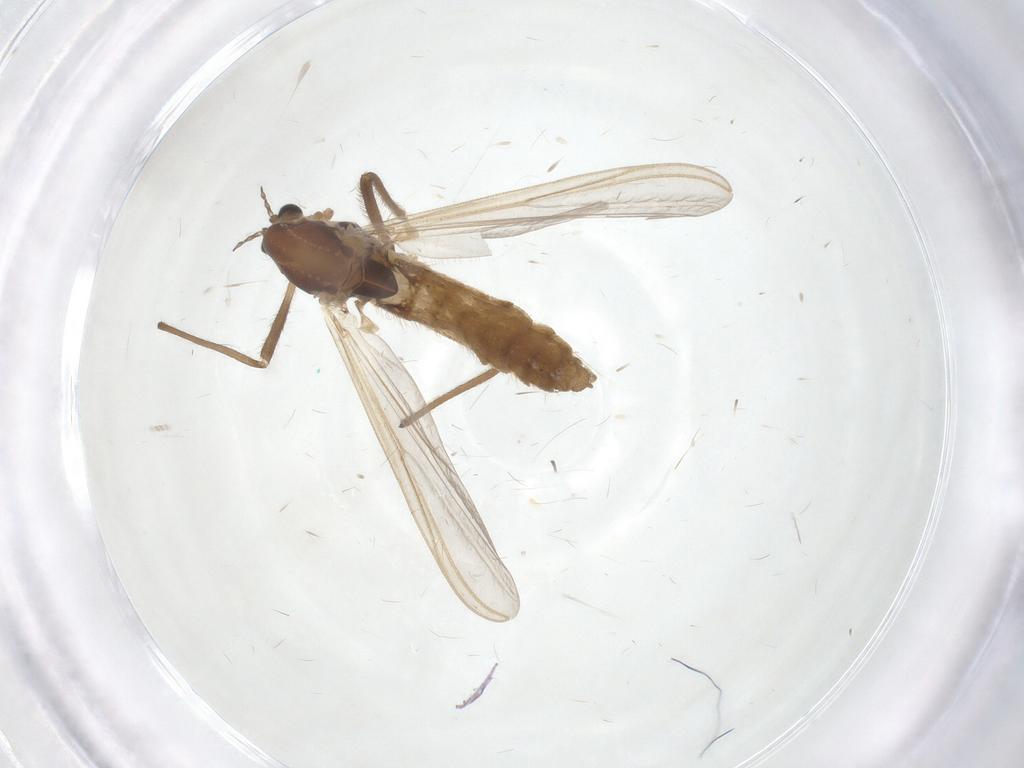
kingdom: Animalia
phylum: Arthropoda
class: Insecta
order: Diptera
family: Chironomidae
